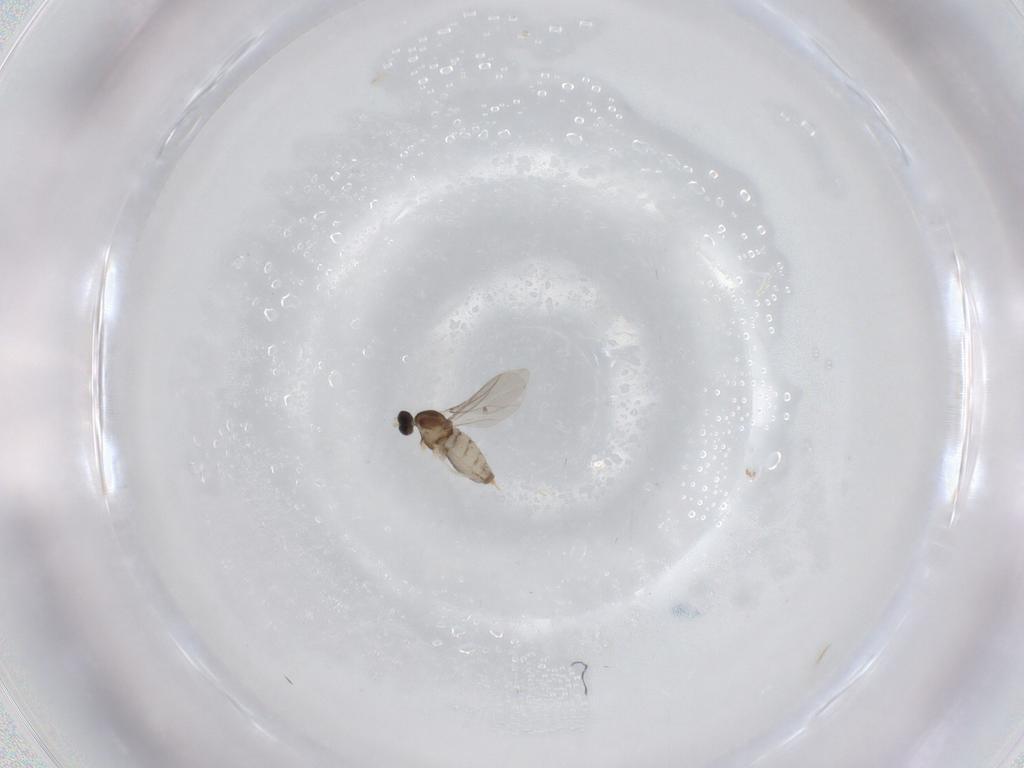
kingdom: Animalia
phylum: Arthropoda
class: Insecta
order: Diptera
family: Cecidomyiidae
